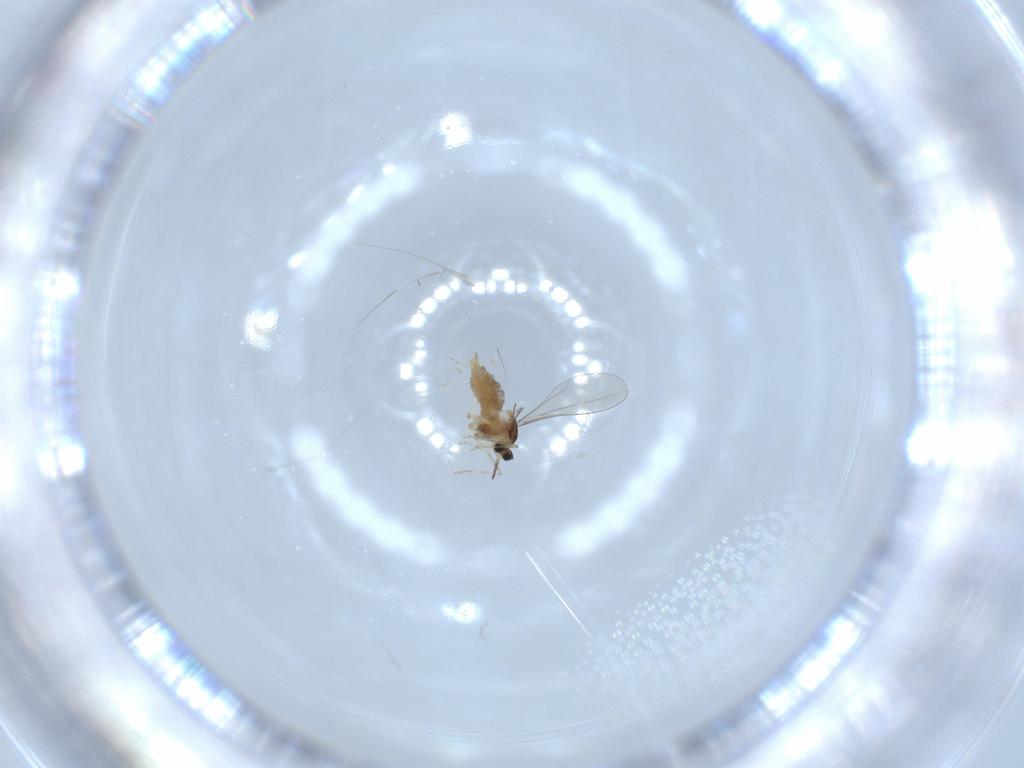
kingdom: Animalia
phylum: Arthropoda
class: Insecta
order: Diptera
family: Cecidomyiidae
